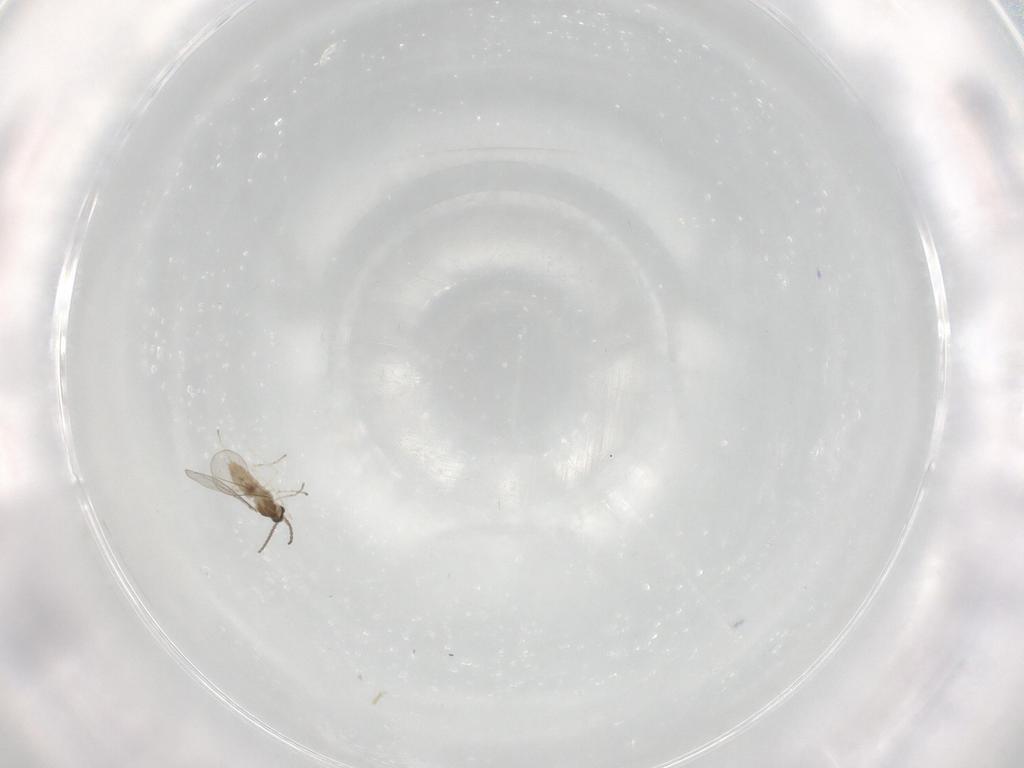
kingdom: Animalia
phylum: Arthropoda
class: Insecta
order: Diptera
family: Cecidomyiidae
